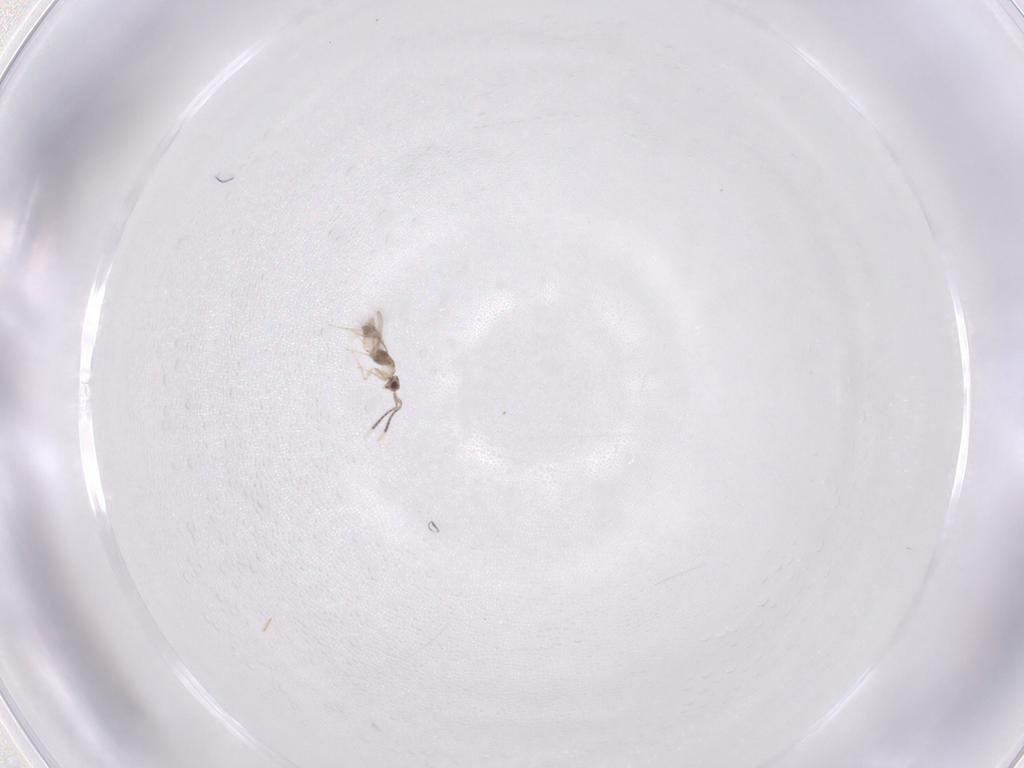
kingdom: Animalia
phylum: Arthropoda
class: Insecta
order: Hymenoptera
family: Mymaridae
